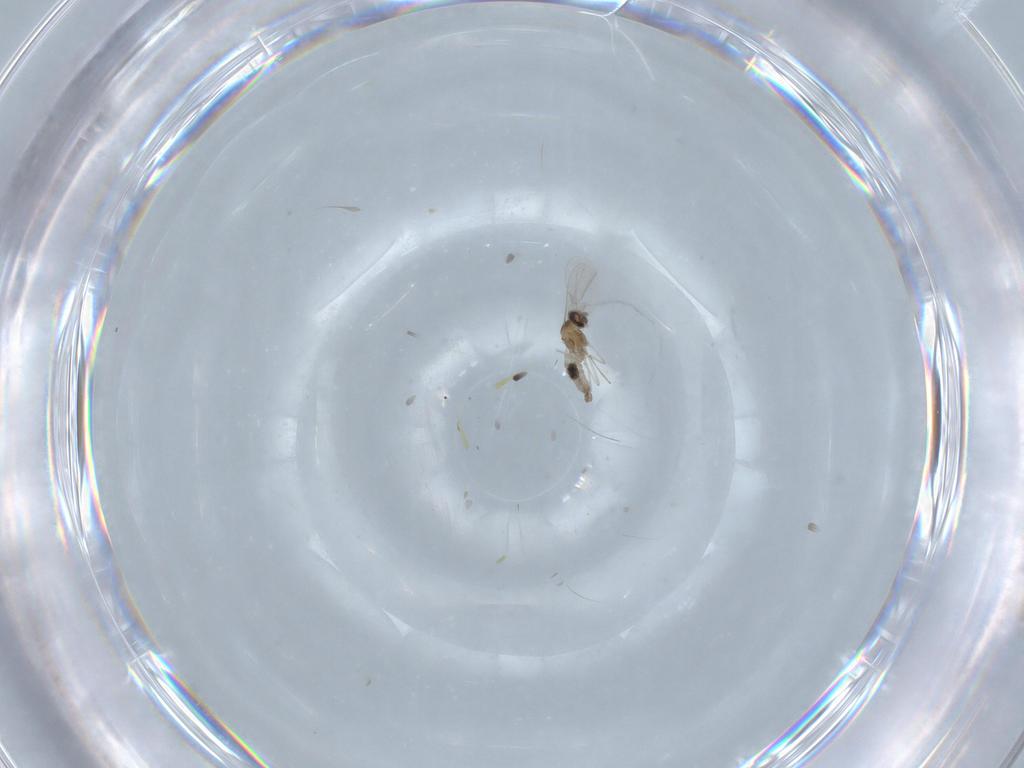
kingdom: Animalia
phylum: Arthropoda
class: Insecta
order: Diptera
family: Cecidomyiidae
